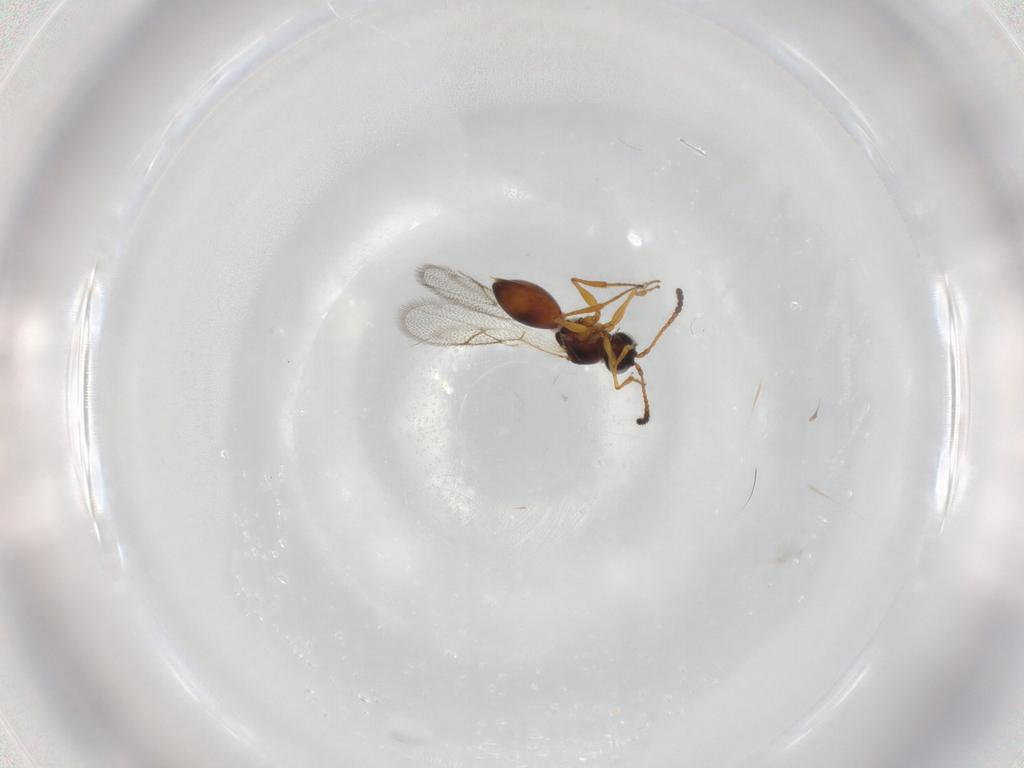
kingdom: Animalia
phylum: Arthropoda
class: Insecta
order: Hymenoptera
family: Figitidae
